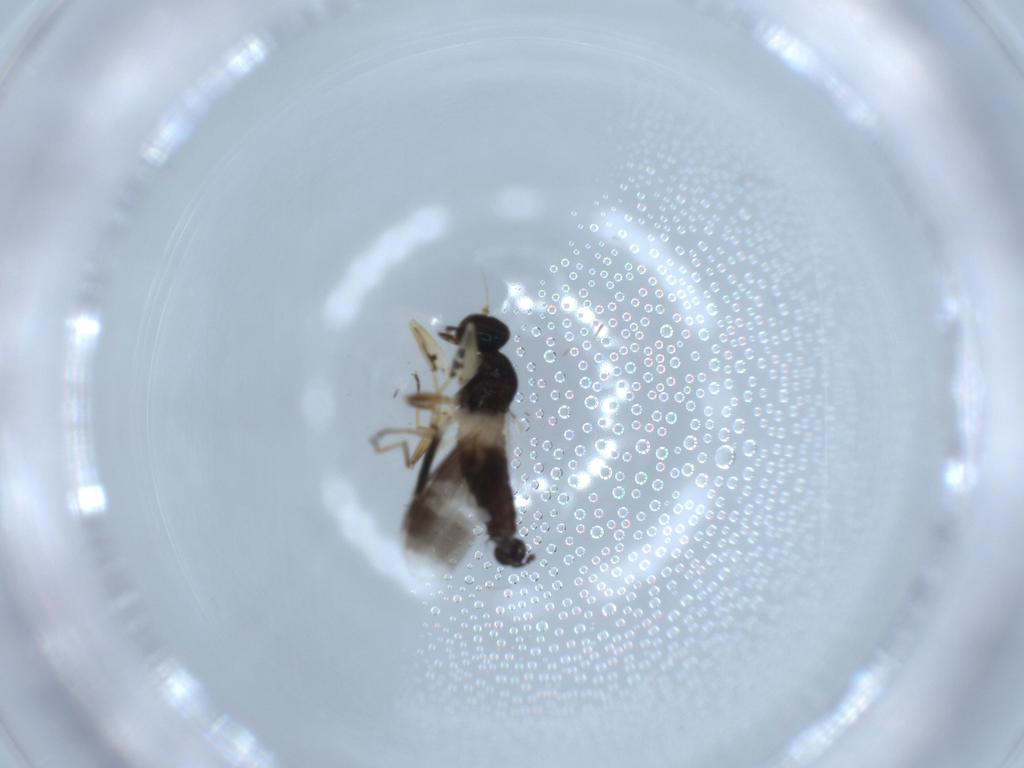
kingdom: Animalia
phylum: Arthropoda
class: Insecta
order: Diptera
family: Hybotidae
